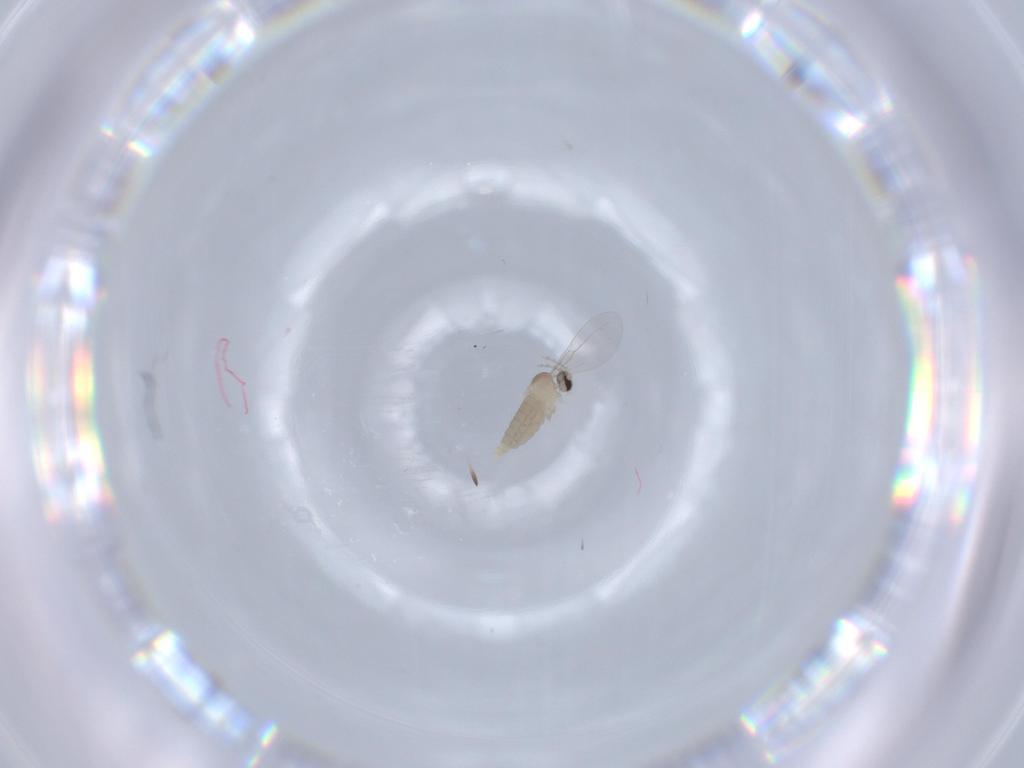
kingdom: Animalia
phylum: Arthropoda
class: Insecta
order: Diptera
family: Cecidomyiidae
